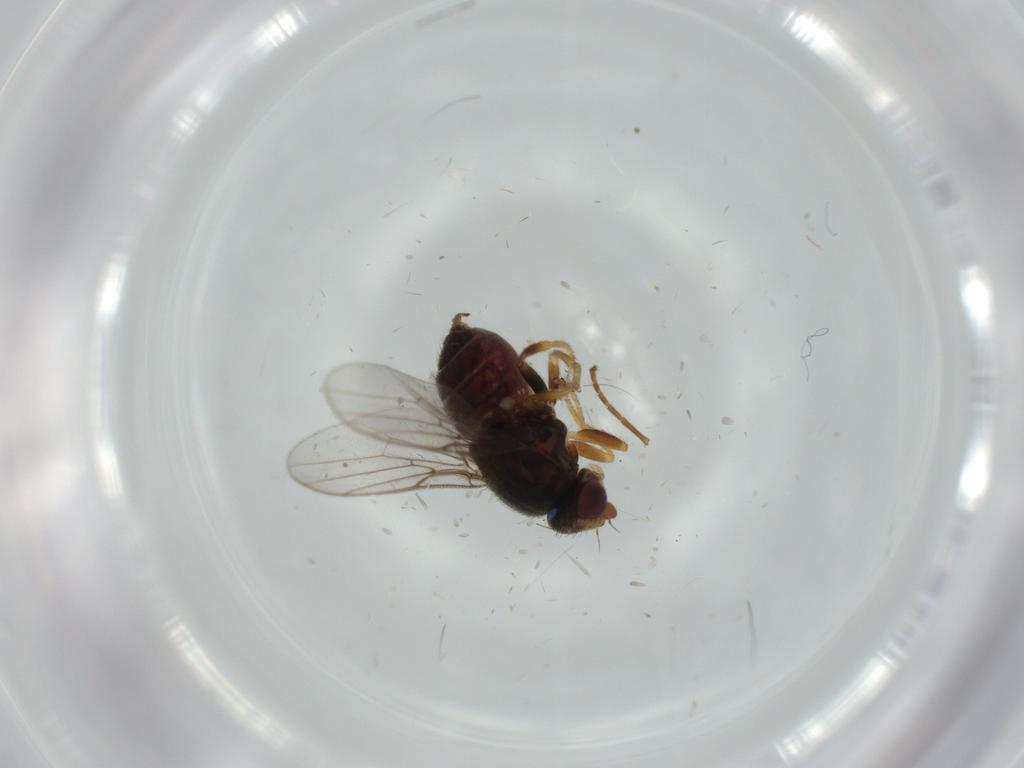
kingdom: Animalia
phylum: Arthropoda
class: Insecta
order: Diptera
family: Chloropidae
